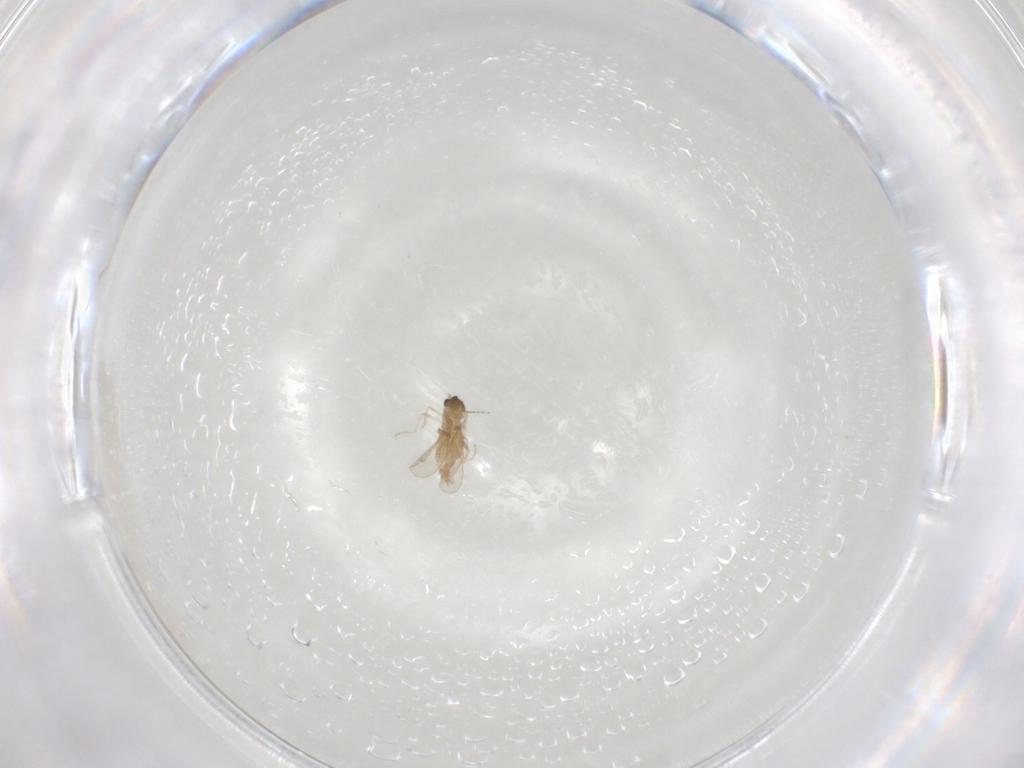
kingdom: Animalia
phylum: Arthropoda
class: Insecta
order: Diptera
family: Cecidomyiidae
